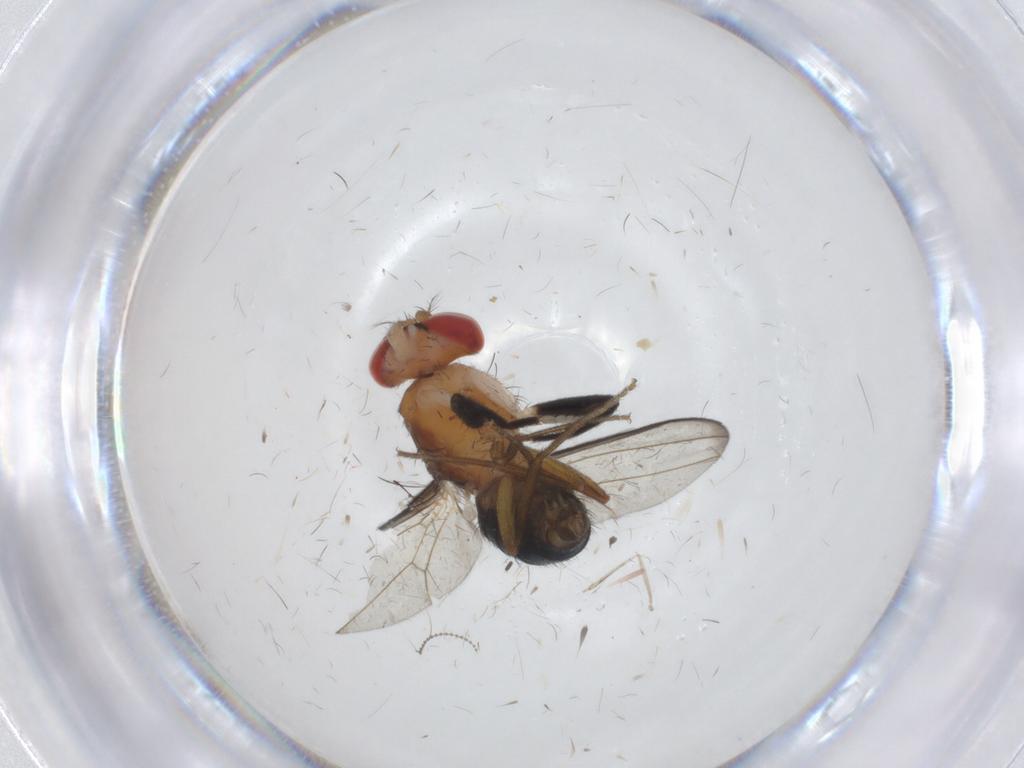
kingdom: Animalia
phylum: Arthropoda
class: Insecta
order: Diptera
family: Drosophilidae
